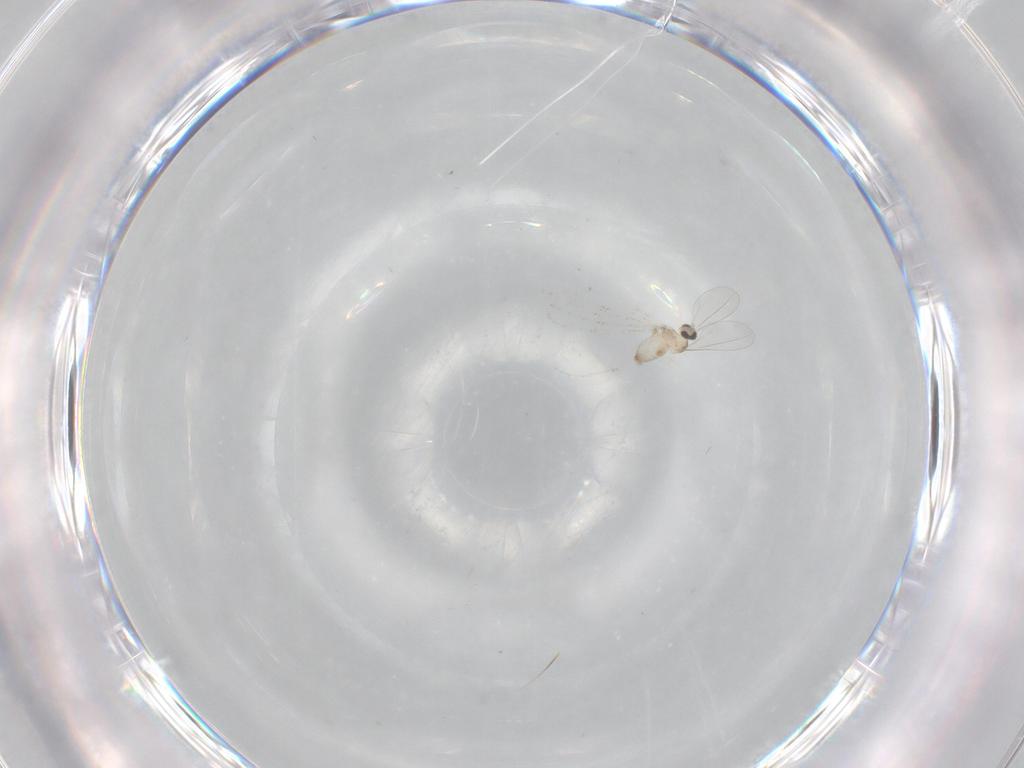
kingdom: Animalia
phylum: Arthropoda
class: Insecta
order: Diptera
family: Cecidomyiidae
